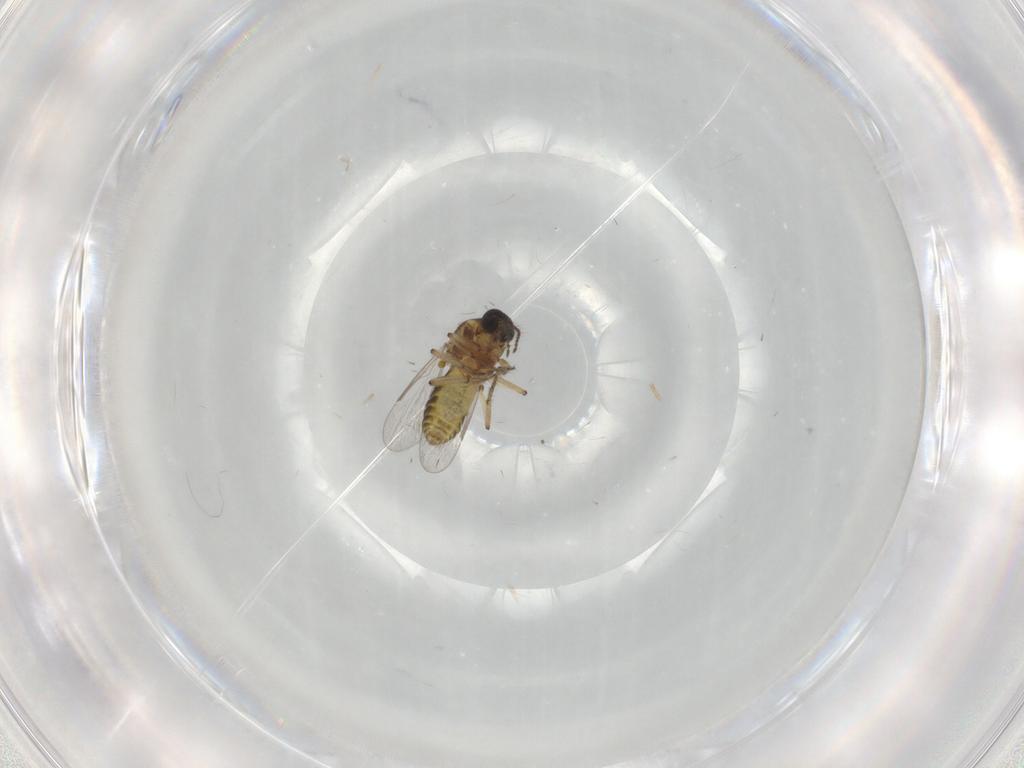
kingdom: Animalia
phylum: Arthropoda
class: Insecta
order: Diptera
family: Ceratopogonidae
